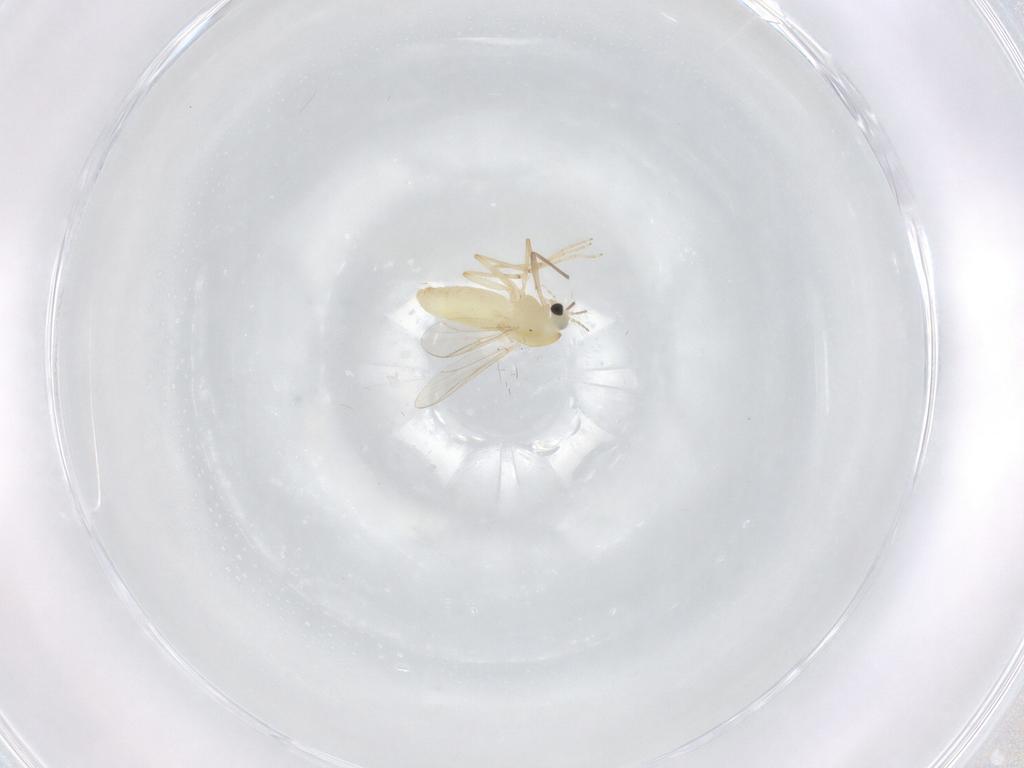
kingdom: Animalia
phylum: Arthropoda
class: Insecta
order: Diptera
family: Chironomidae
